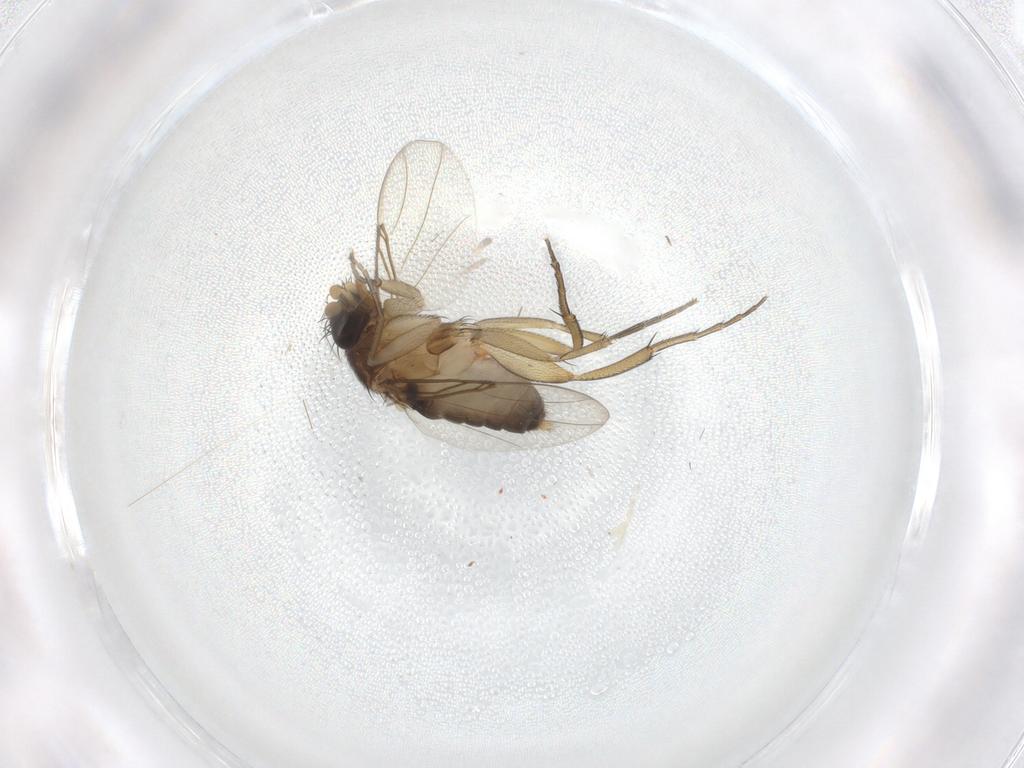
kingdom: Animalia
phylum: Arthropoda
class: Insecta
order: Diptera
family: Phoridae
